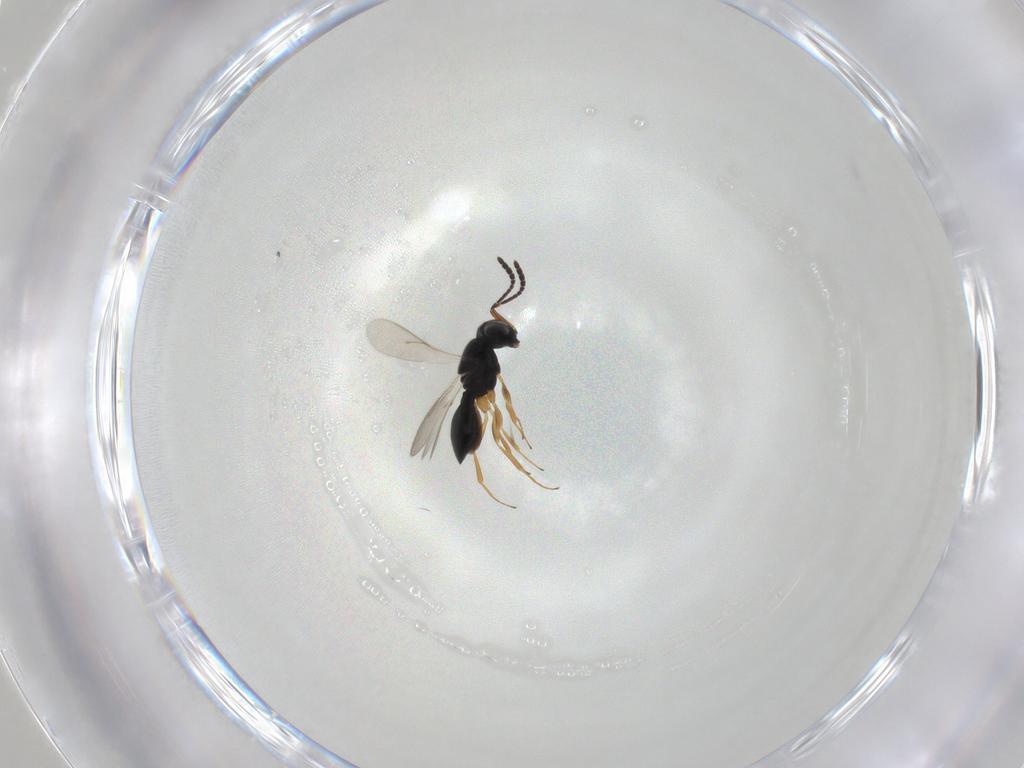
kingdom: Animalia
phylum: Arthropoda
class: Insecta
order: Hymenoptera
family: Scelionidae
